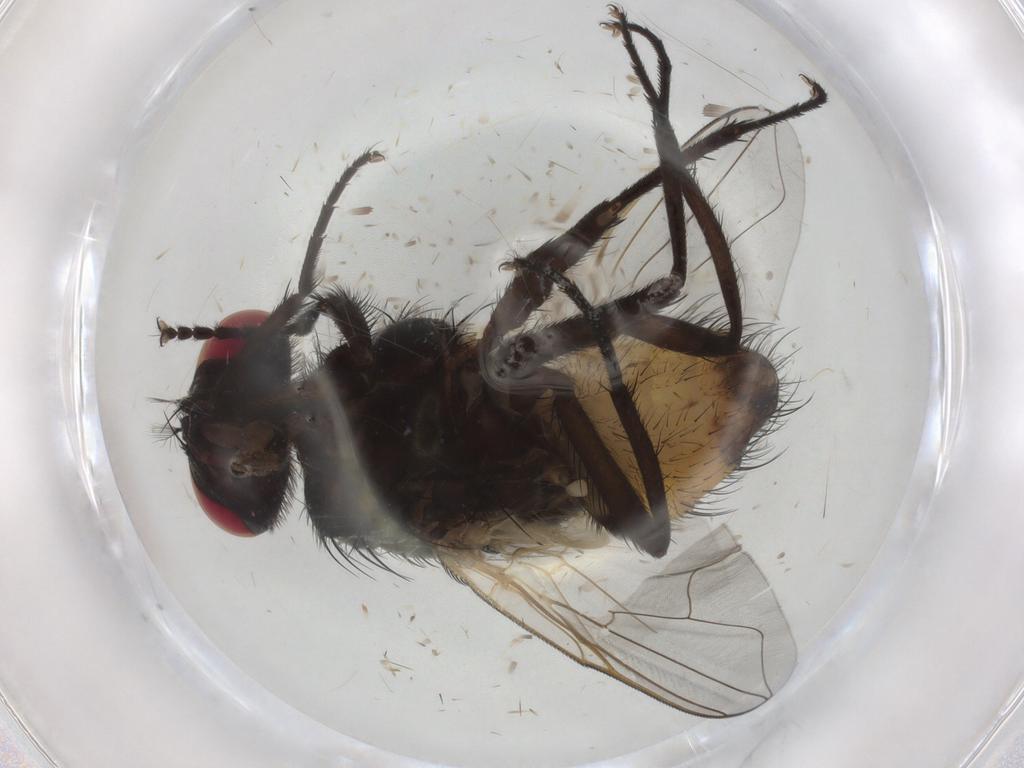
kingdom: Animalia
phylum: Arthropoda
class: Insecta
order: Diptera
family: Muscidae
